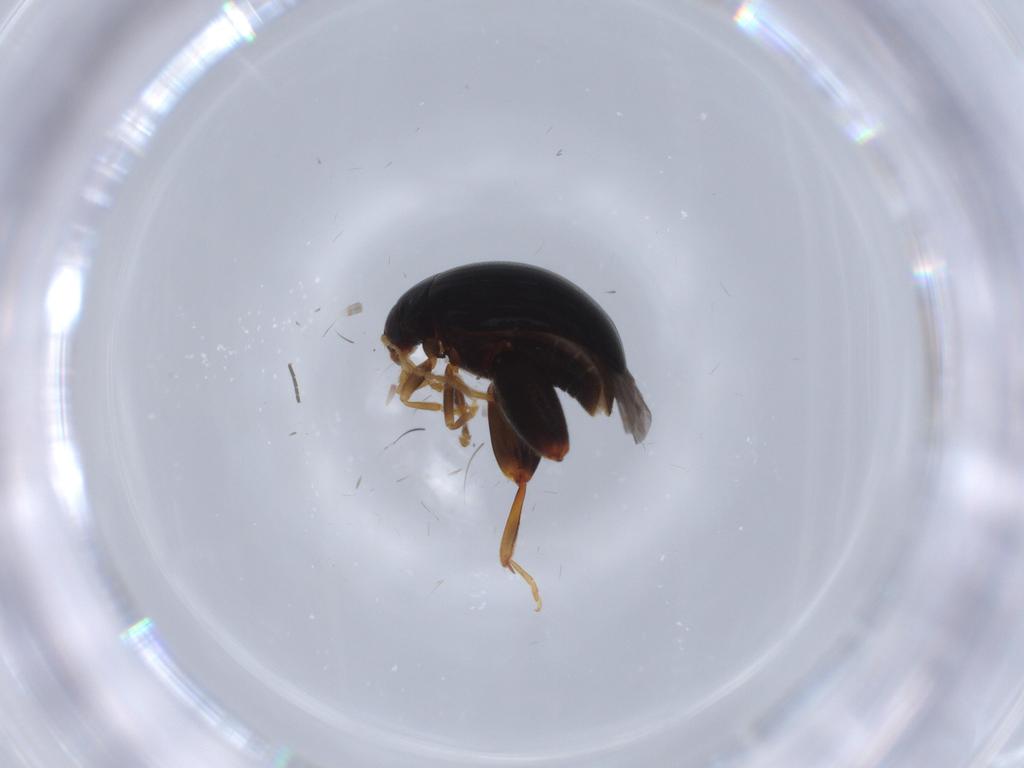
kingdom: Animalia
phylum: Arthropoda
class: Insecta
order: Coleoptera
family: Chrysomelidae
